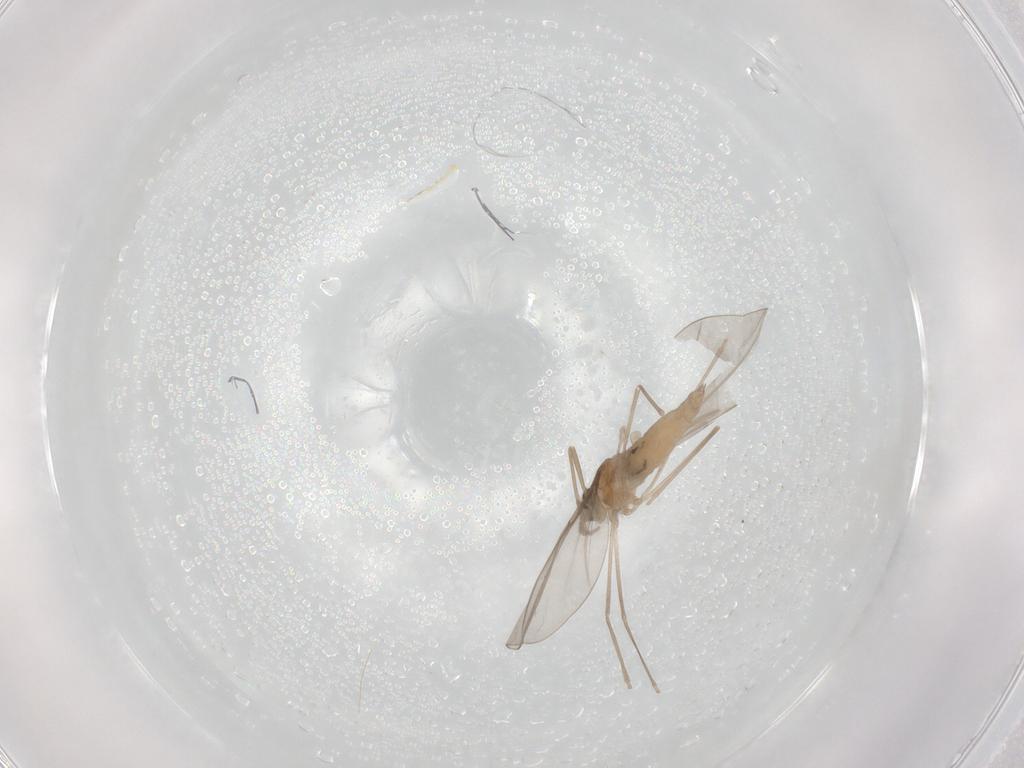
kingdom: Animalia
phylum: Arthropoda
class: Insecta
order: Diptera
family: Cecidomyiidae
